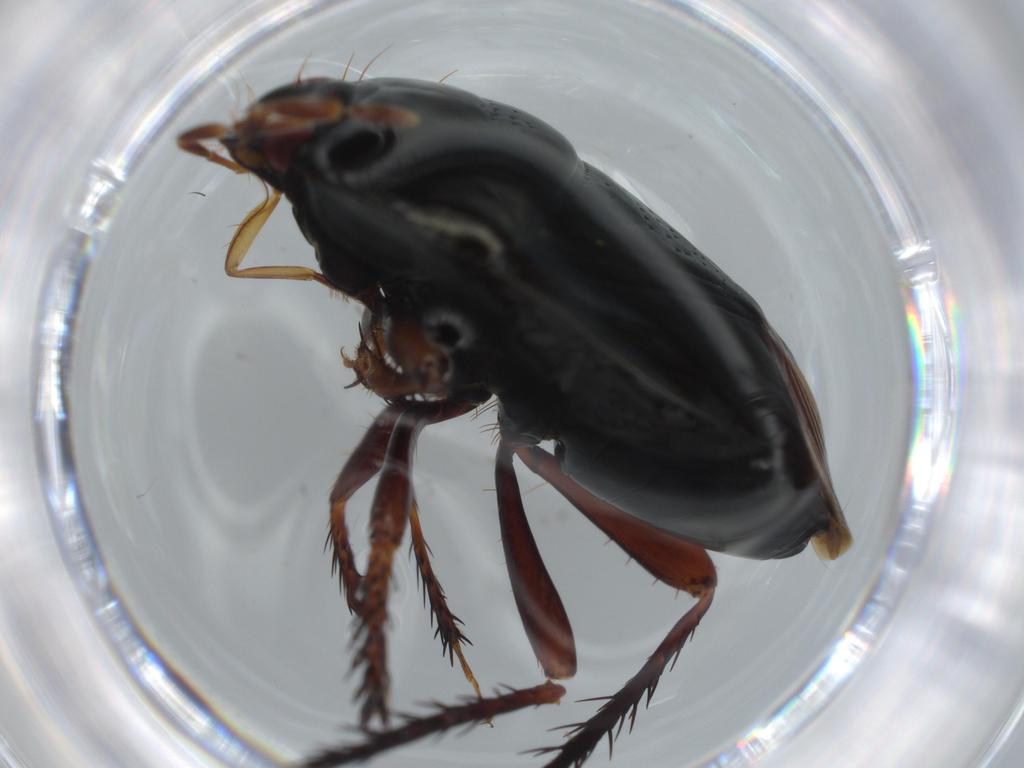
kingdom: Animalia
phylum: Arthropoda
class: Insecta
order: Hemiptera
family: Cydnidae
